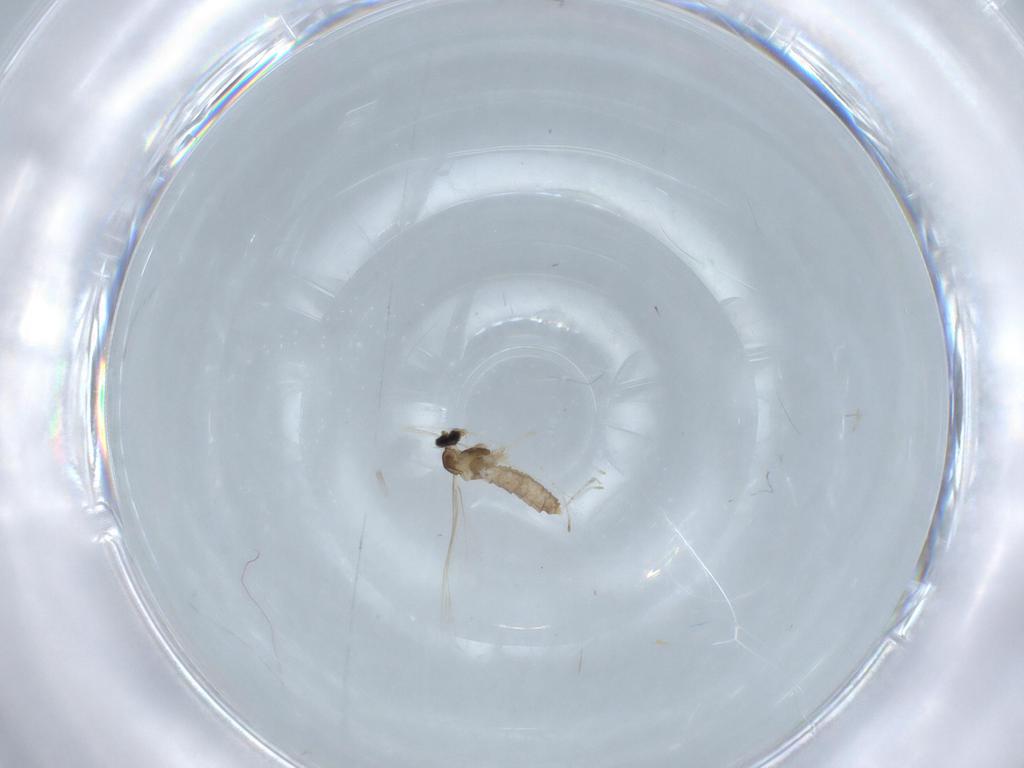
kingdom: Animalia
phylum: Arthropoda
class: Insecta
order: Diptera
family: Cecidomyiidae
